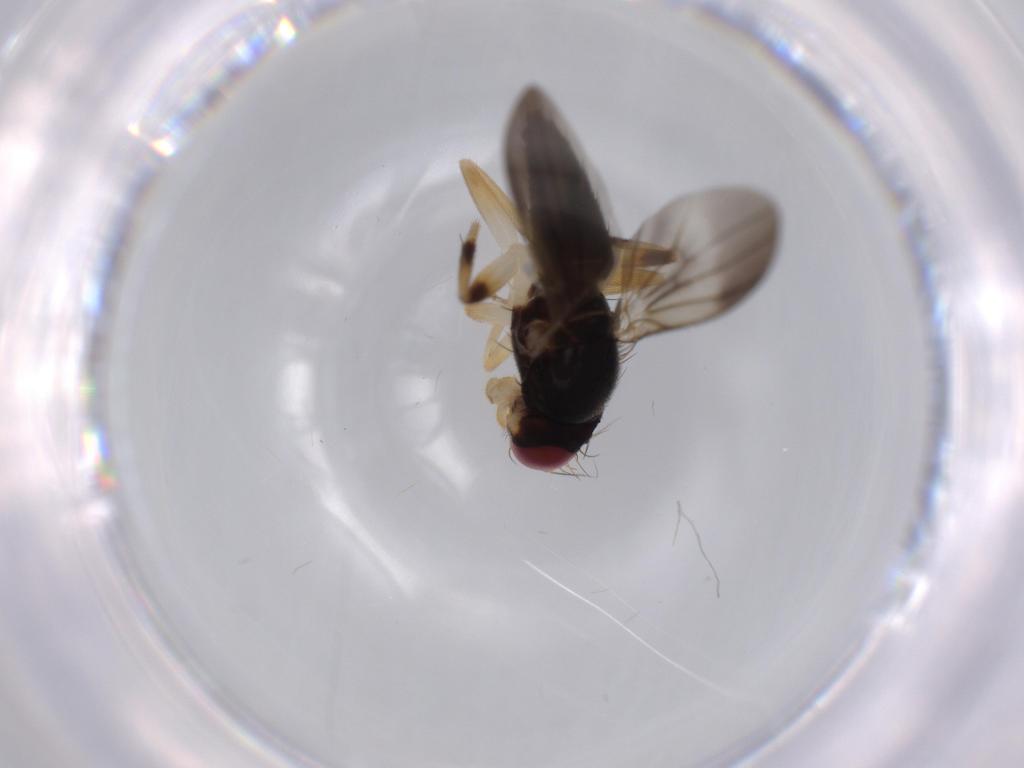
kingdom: Animalia
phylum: Arthropoda
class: Insecta
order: Diptera
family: Clusiidae
